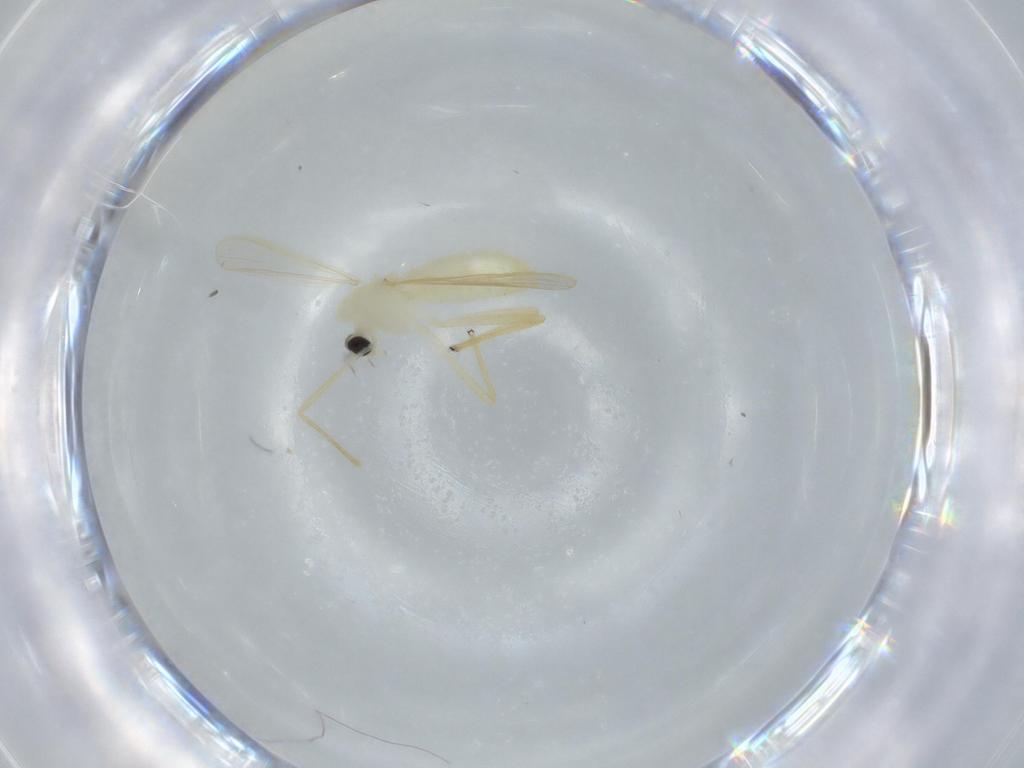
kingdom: Animalia
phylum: Arthropoda
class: Insecta
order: Diptera
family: Chironomidae
